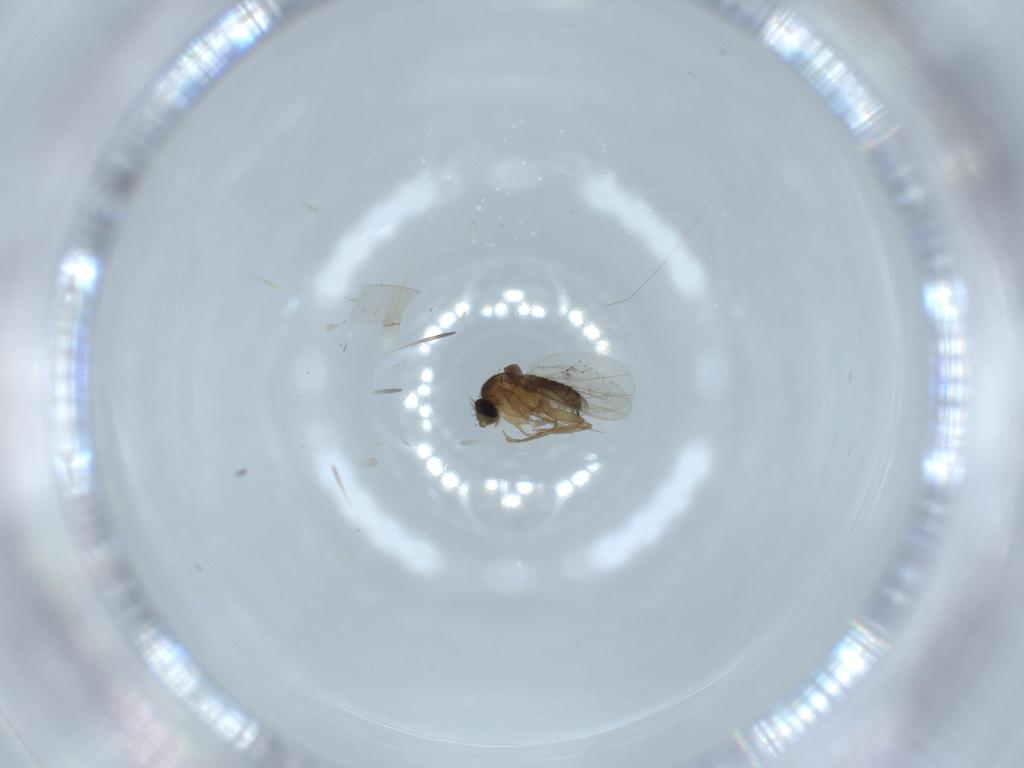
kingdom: Animalia
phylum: Arthropoda
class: Insecta
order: Diptera
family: Phoridae
